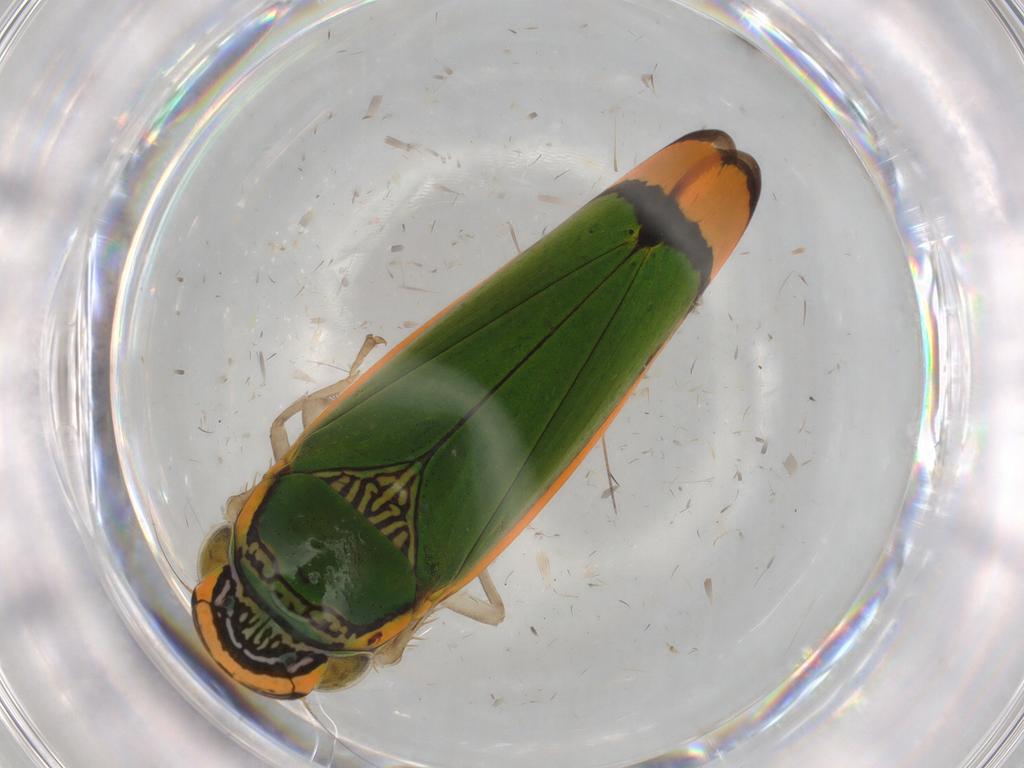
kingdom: Animalia
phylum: Arthropoda
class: Insecta
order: Hemiptera
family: Cicadellidae
